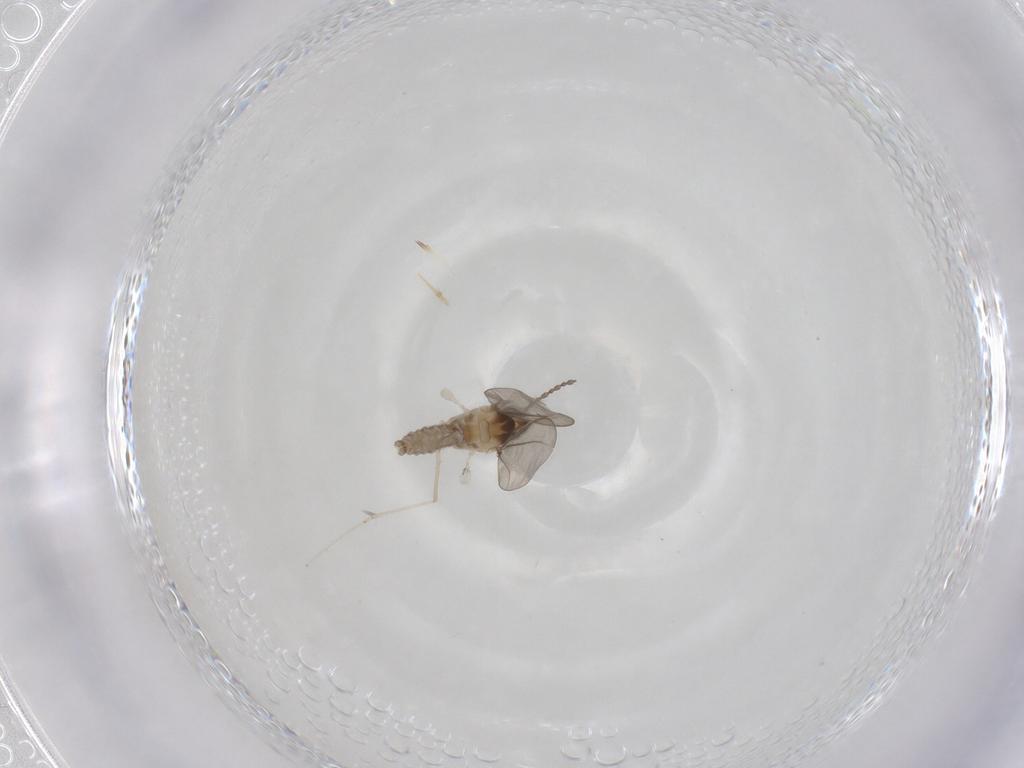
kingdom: Animalia
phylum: Arthropoda
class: Insecta
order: Diptera
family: Cecidomyiidae
